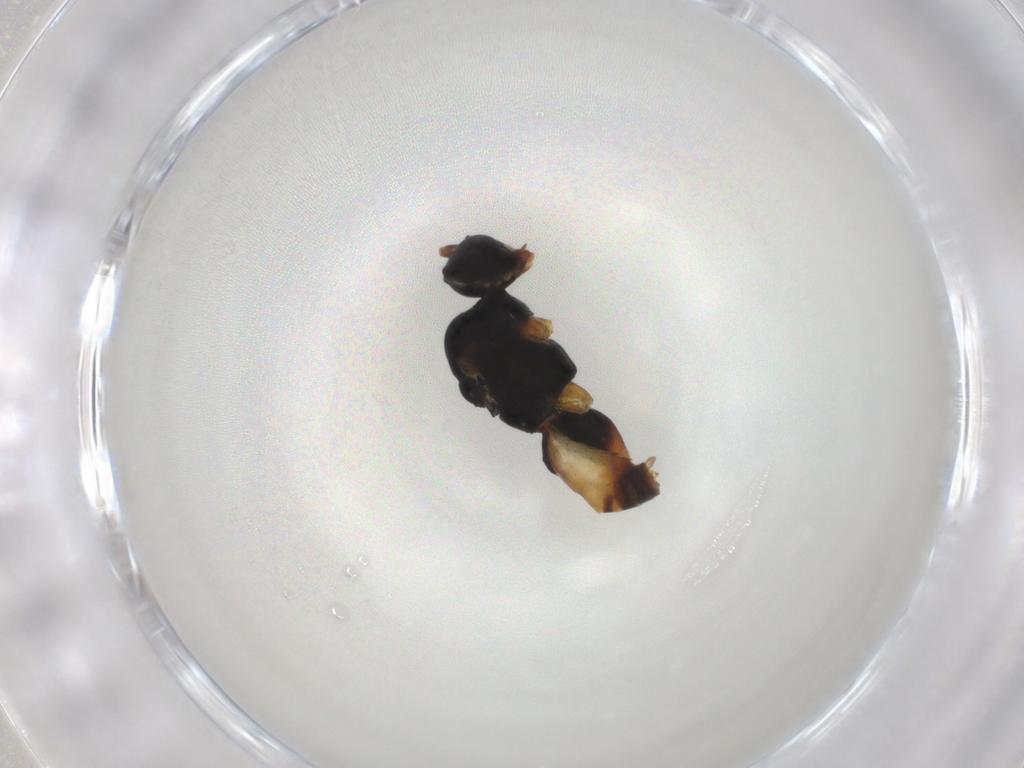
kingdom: Animalia
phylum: Arthropoda
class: Insecta
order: Hymenoptera
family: Braconidae
